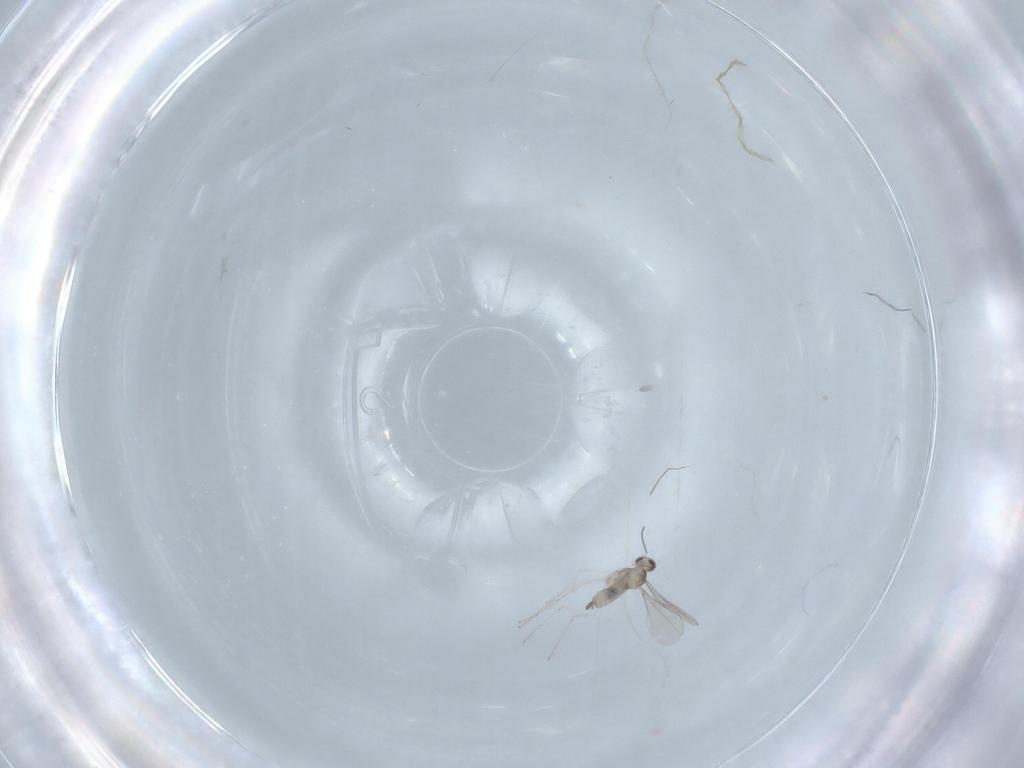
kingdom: Animalia
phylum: Arthropoda
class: Insecta
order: Diptera
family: Cecidomyiidae
